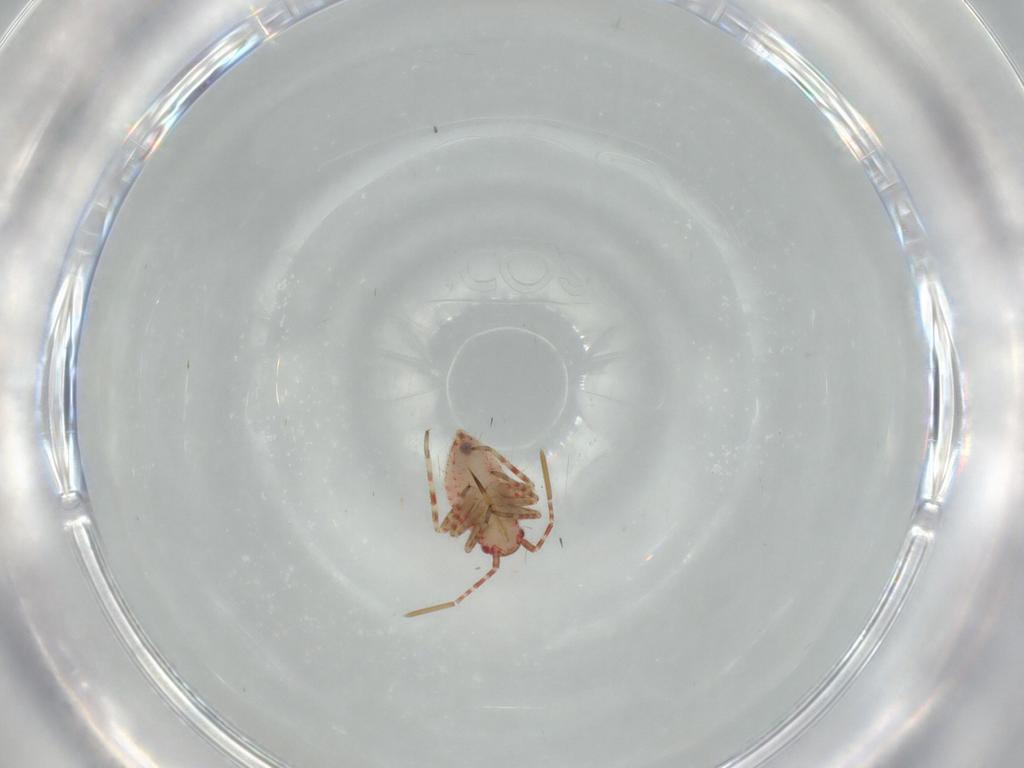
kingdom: Animalia
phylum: Arthropoda
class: Insecta
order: Hemiptera
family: Miridae
